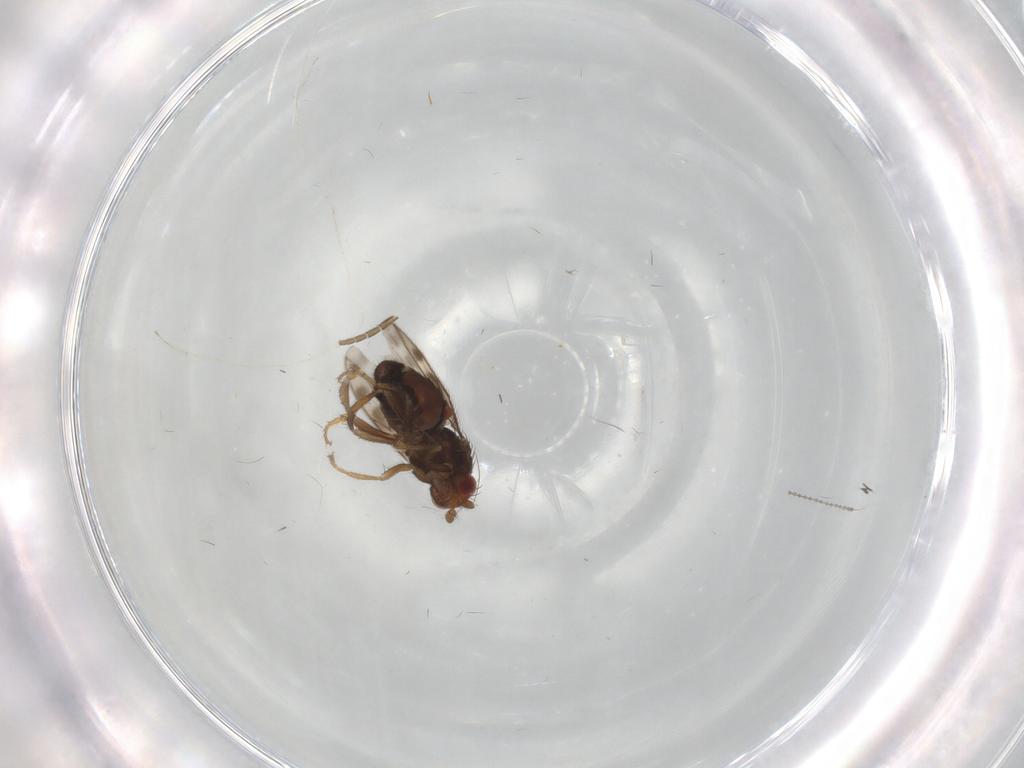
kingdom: Animalia
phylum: Arthropoda
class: Insecta
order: Diptera
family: Sphaeroceridae
